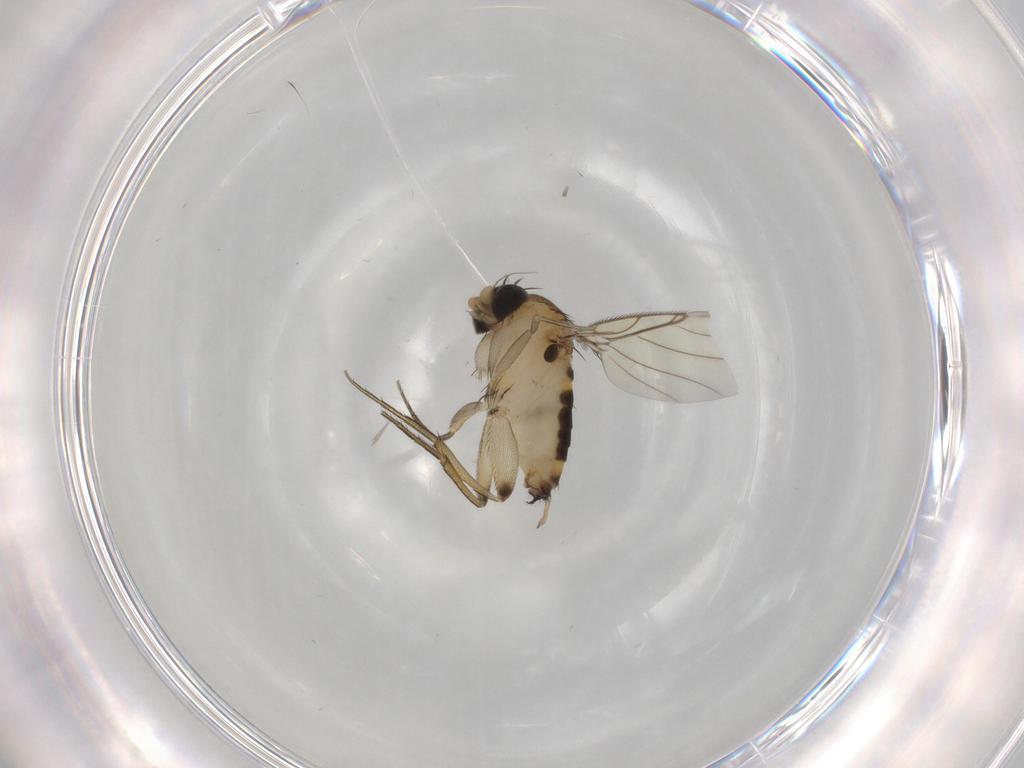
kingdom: Animalia
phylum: Arthropoda
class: Insecta
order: Diptera
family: Phoridae
